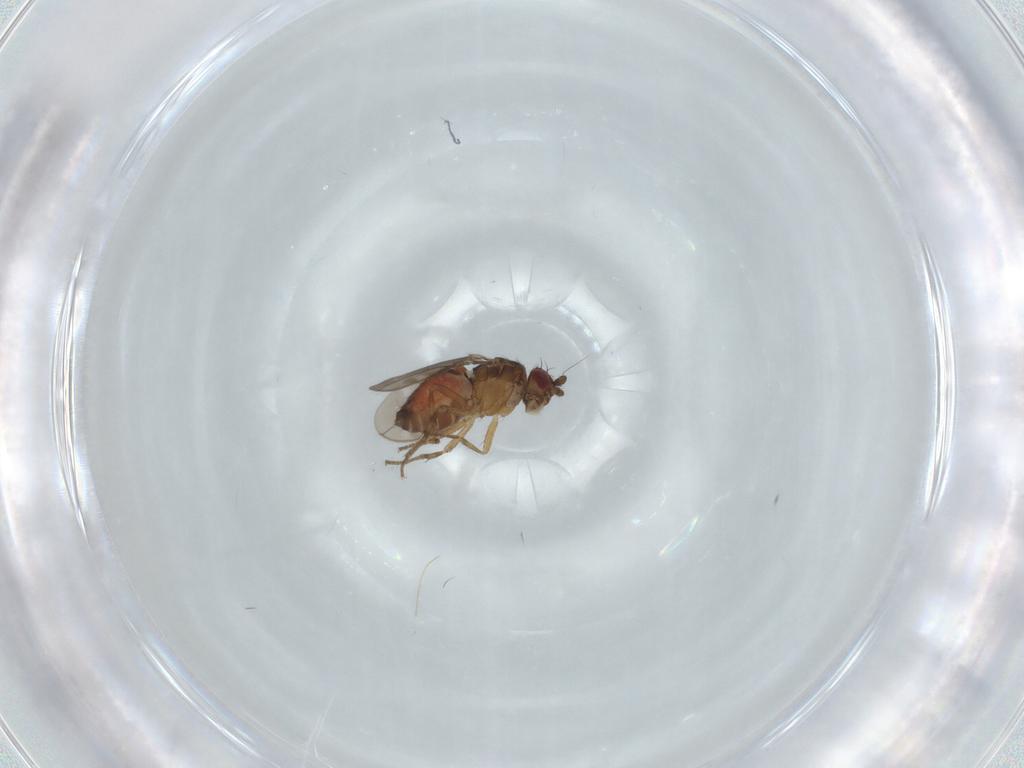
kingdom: Animalia
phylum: Arthropoda
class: Insecta
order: Diptera
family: Sphaeroceridae
